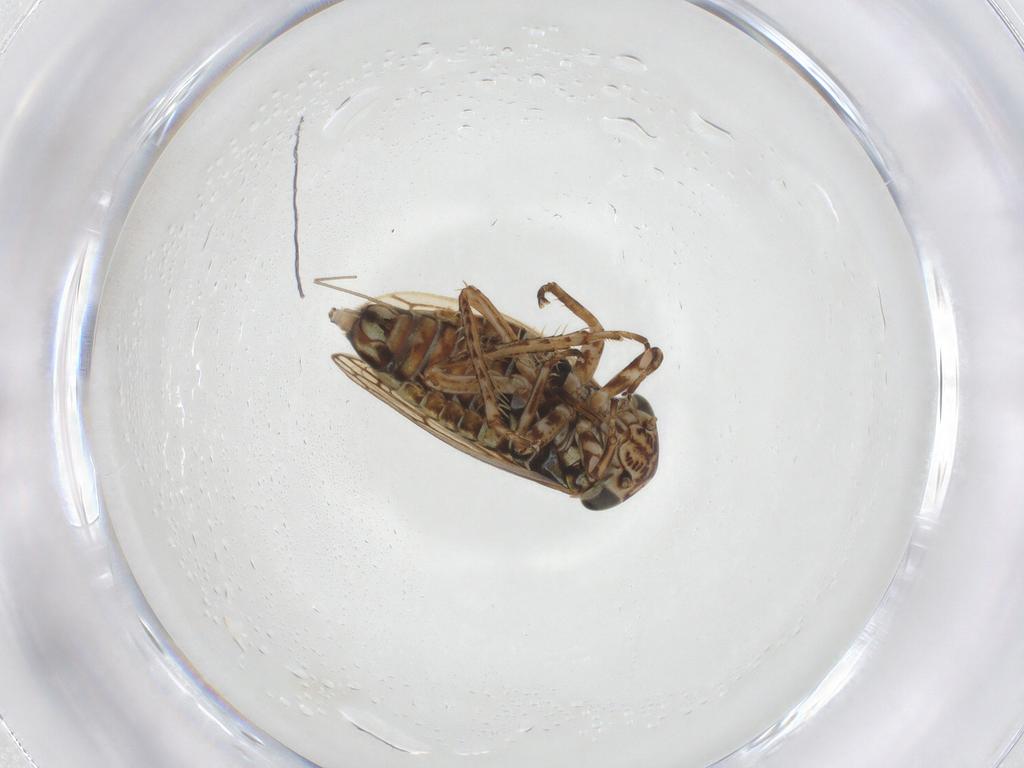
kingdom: Animalia
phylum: Arthropoda
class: Insecta
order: Hemiptera
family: Cicadellidae
